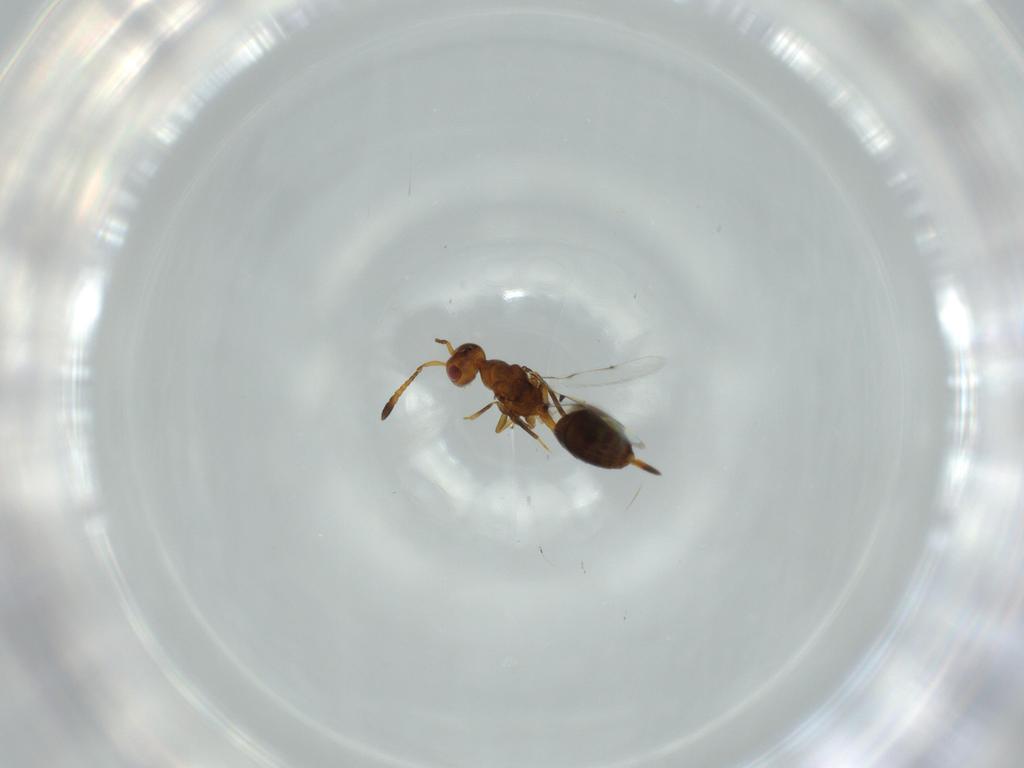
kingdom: Animalia
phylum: Arthropoda
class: Insecta
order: Hymenoptera
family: Cerocephalidae
